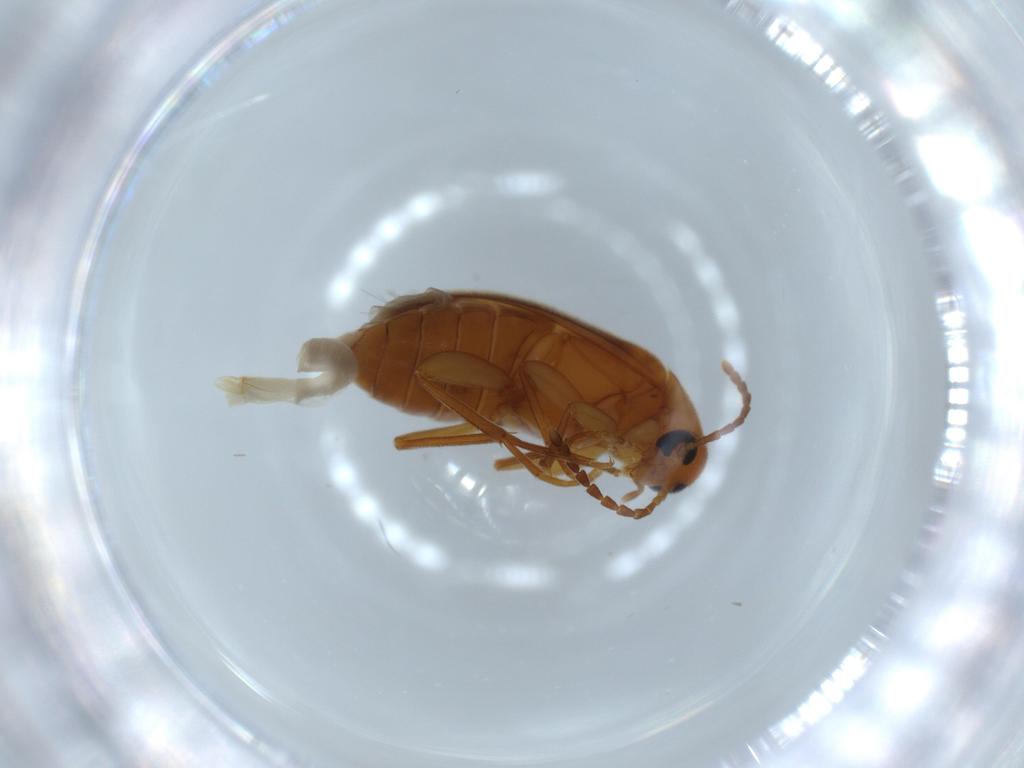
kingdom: Animalia
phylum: Arthropoda
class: Insecta
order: Coleoptera
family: Scraptiidae
